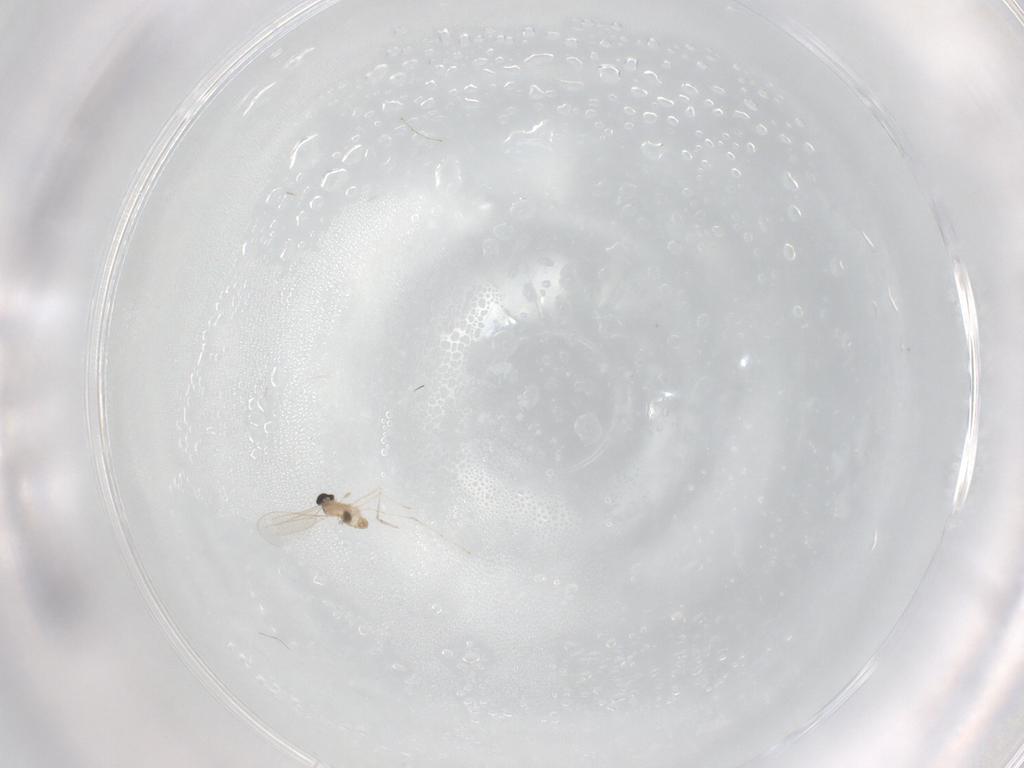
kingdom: Animalia
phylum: Arthropoda
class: Insecta
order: Diptera
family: Cecidomyiidae
